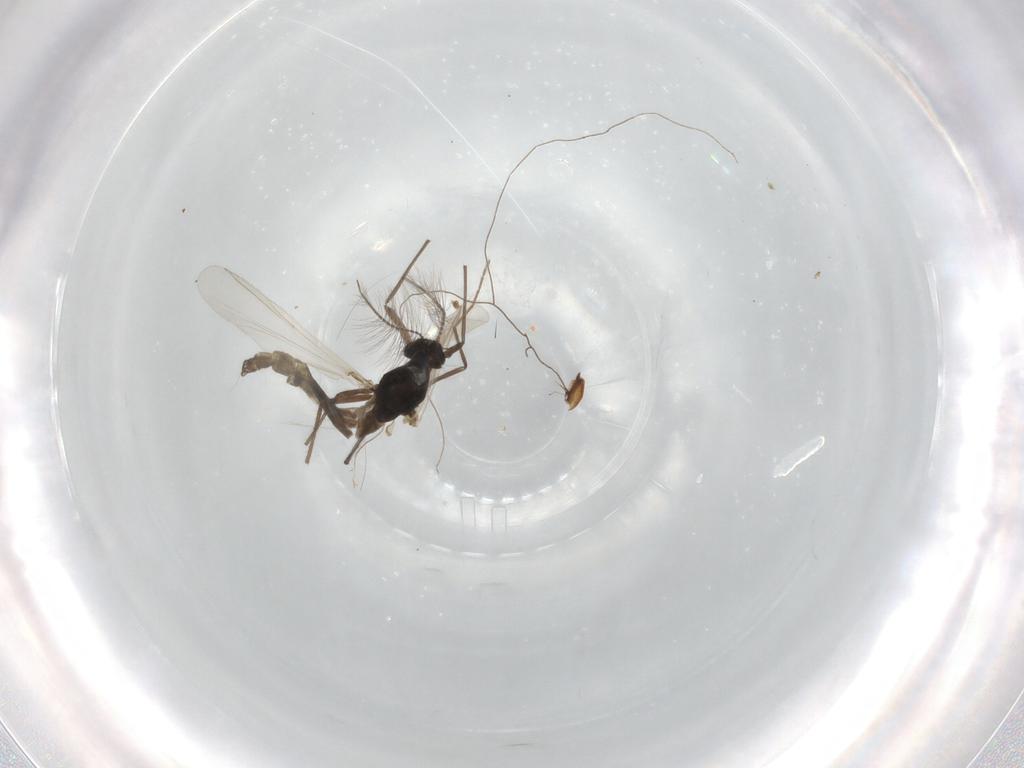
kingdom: Animalia
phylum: Arthropoda
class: Insecta
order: Diptera
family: Chironomidae
